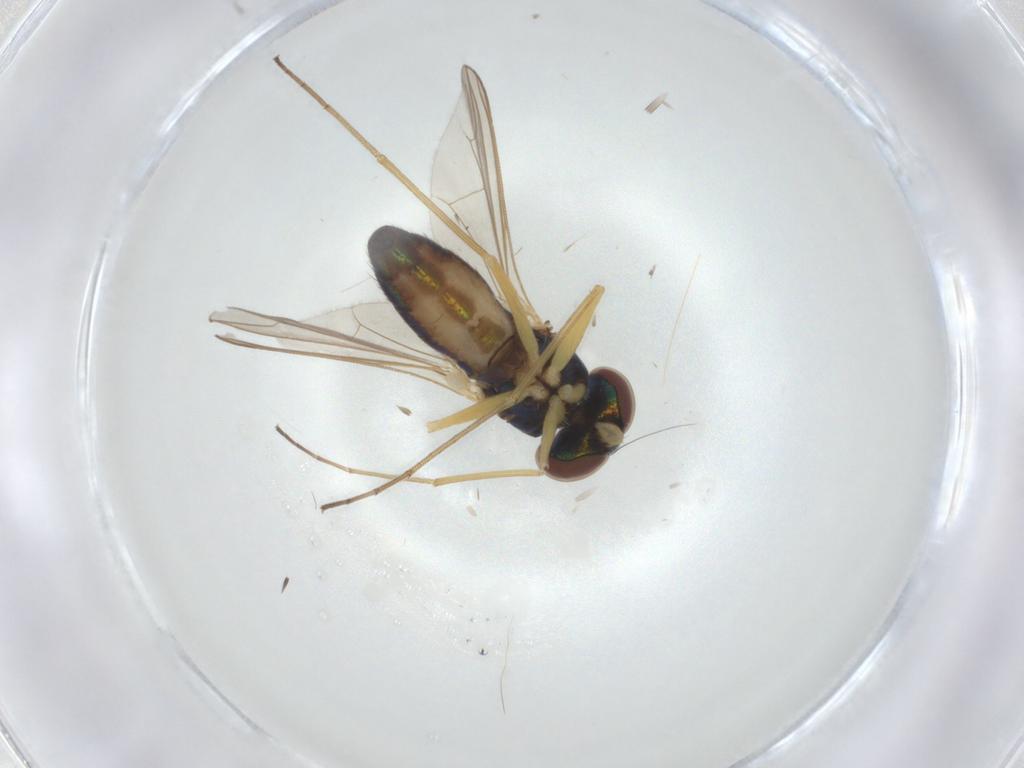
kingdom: Animalia
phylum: Arthropoda
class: Insecta
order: Diptera
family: Dolichopodidae
